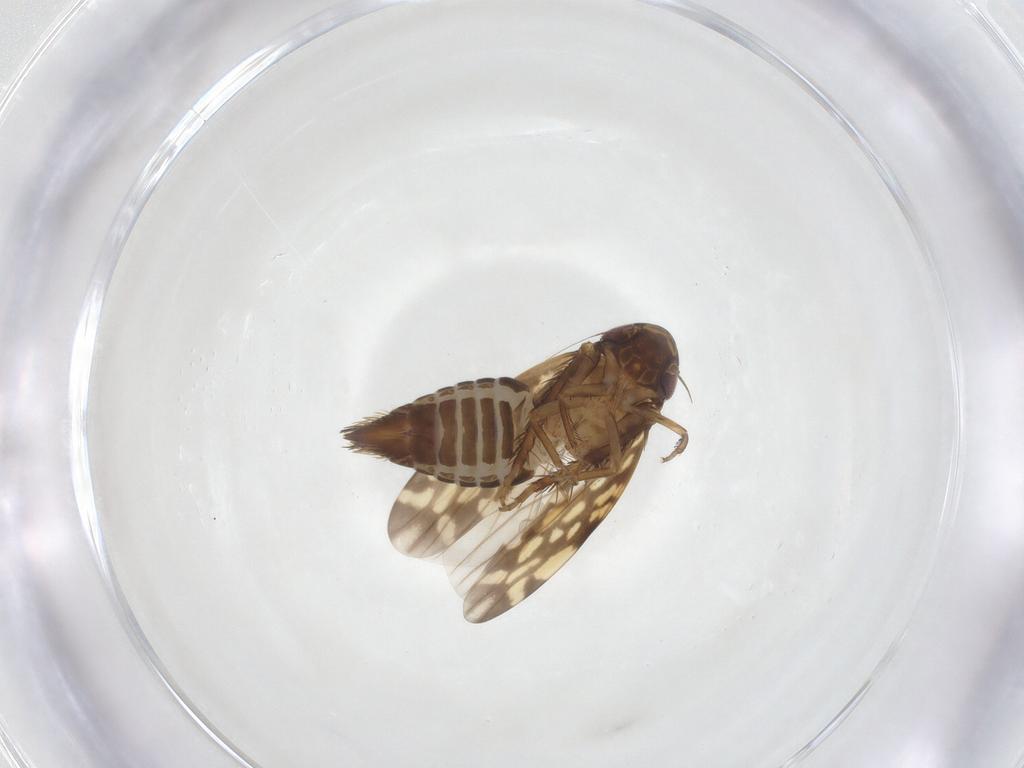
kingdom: Animalia
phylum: Arthropoda
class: Insecta
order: Hemiptera
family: Cicadellidae
